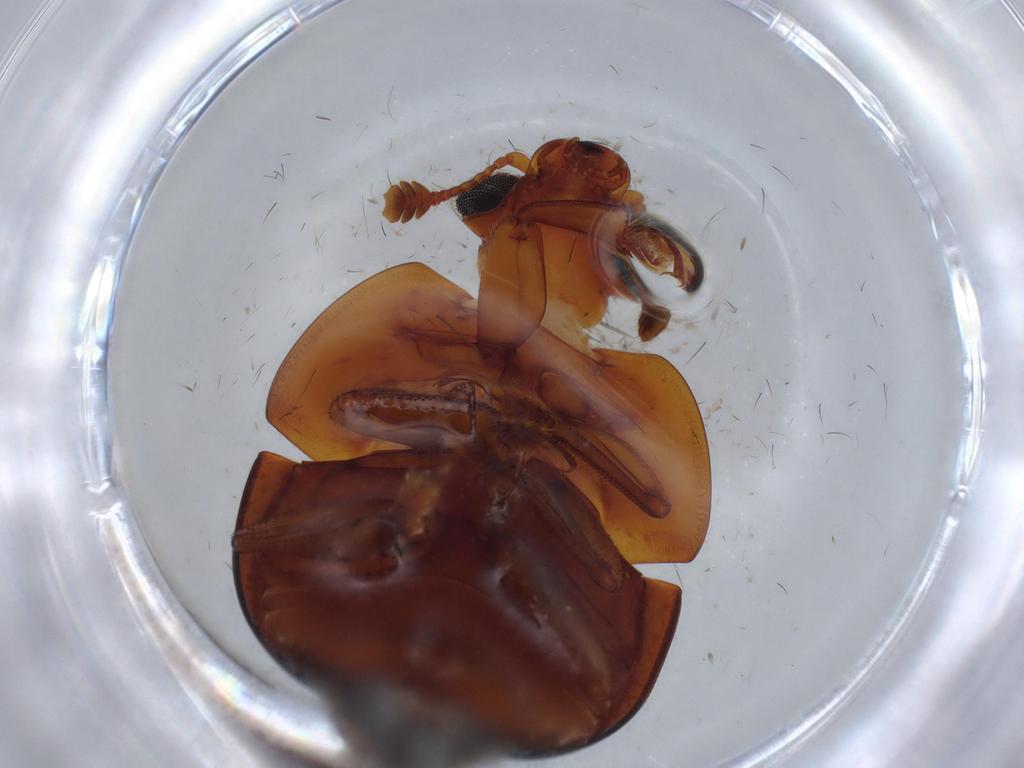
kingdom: Animalia
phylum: Arthropoda
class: Insecta
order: Coleoptera
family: Nitidulidae
